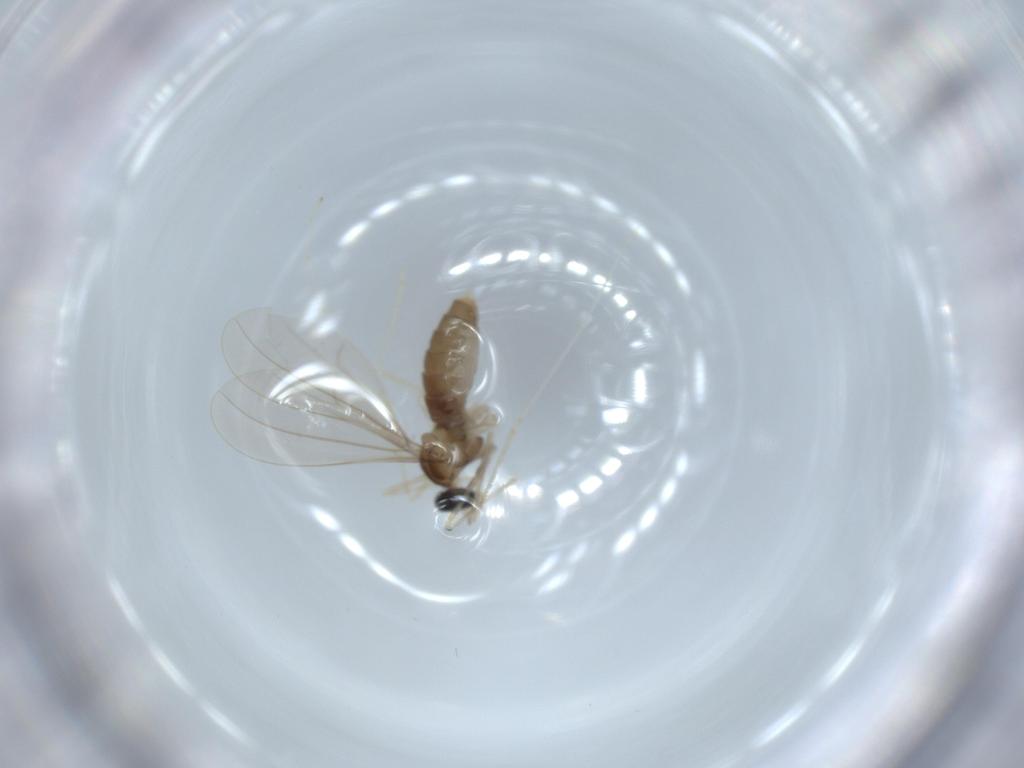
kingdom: Animalia
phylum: Arthropoda
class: Insecta
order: Diptera
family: Cecidomyiidae
